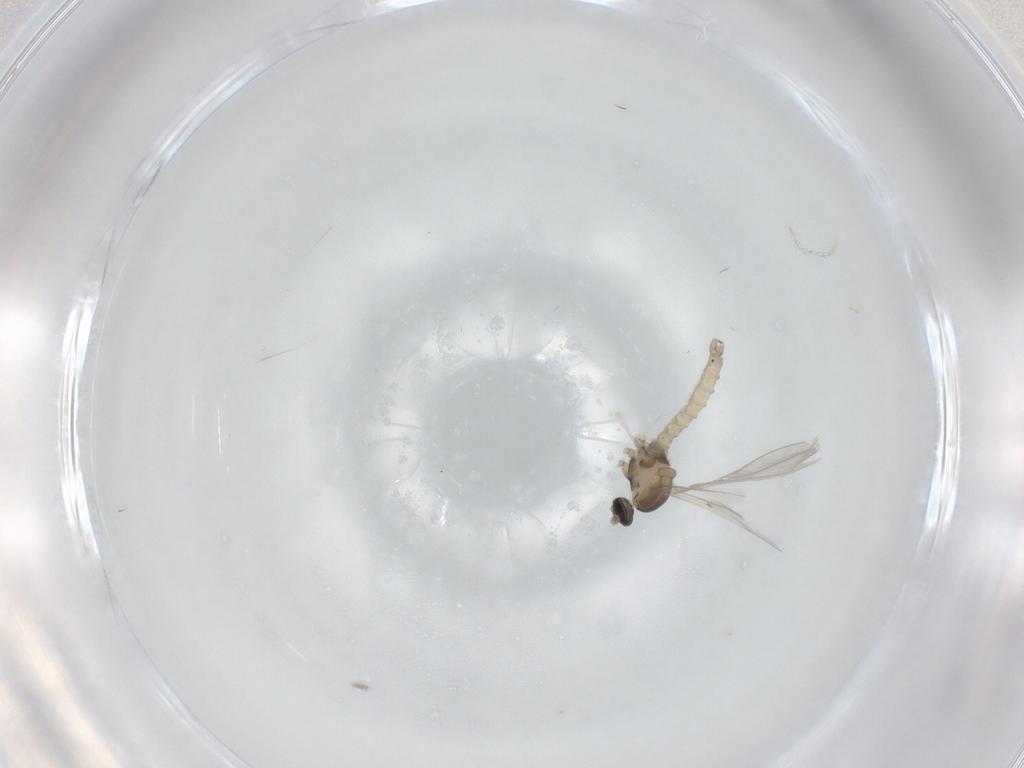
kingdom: Animalia
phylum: Arthropoda
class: Insecta
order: Diptera
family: Cecidomyiidae
